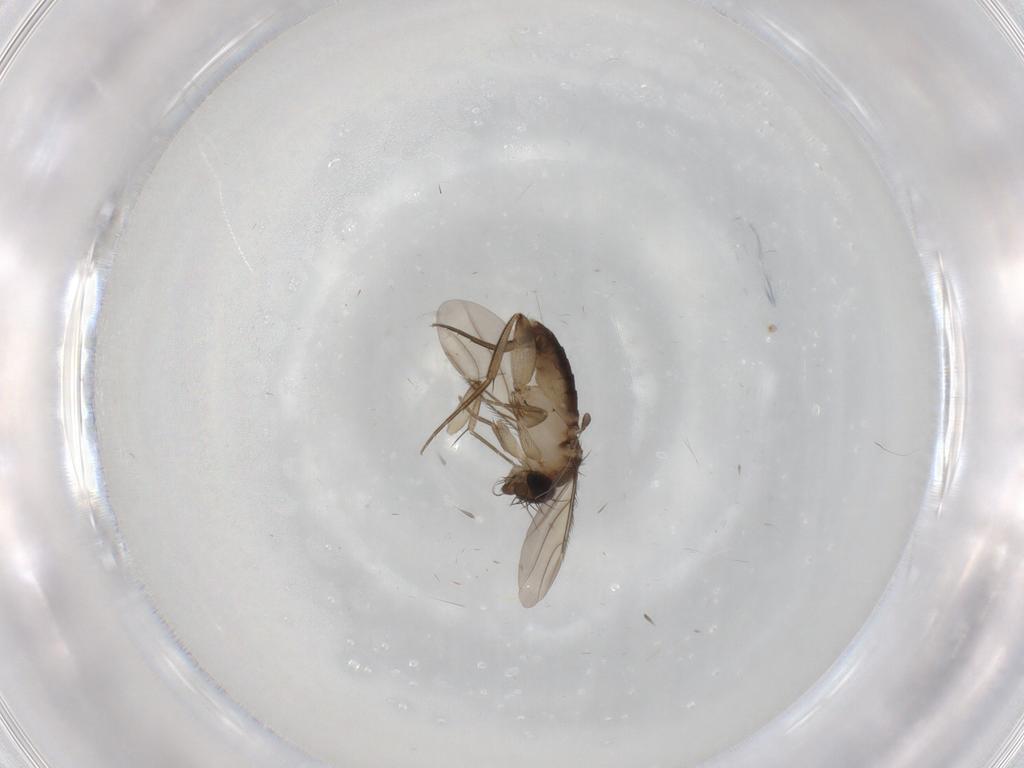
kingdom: Animalia
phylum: Arthropoda
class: Insecta
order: Diptera
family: Phoridae
